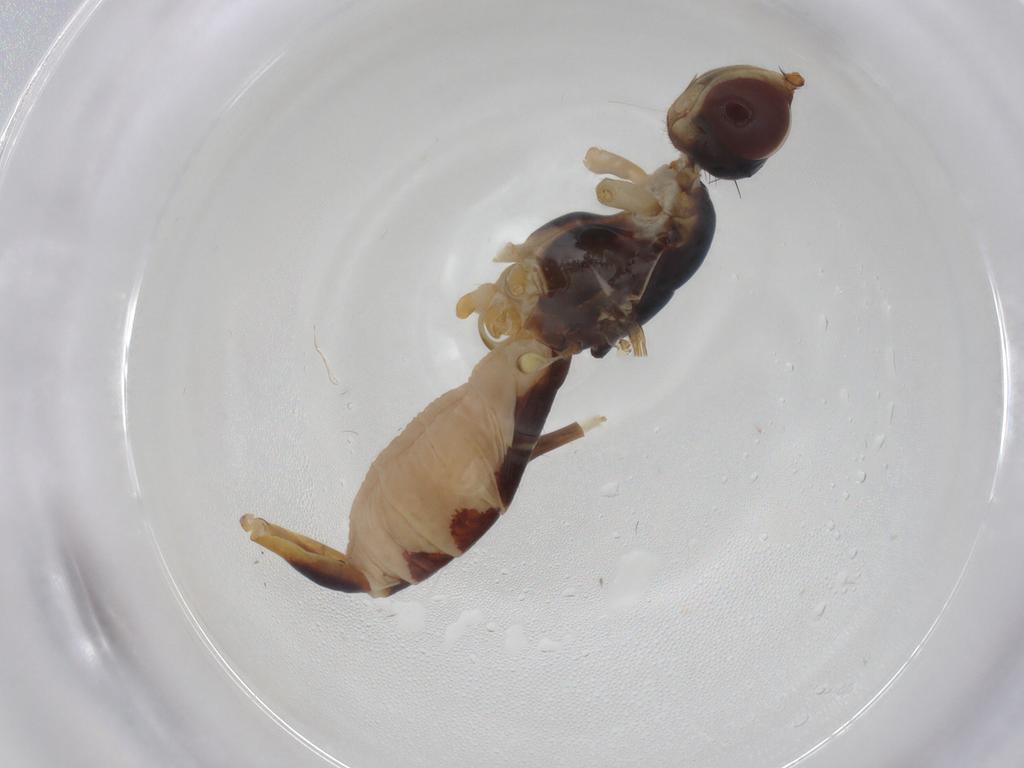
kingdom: Animalia
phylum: Arthropoda
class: Insecta
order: Diptera
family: Micropezidae
